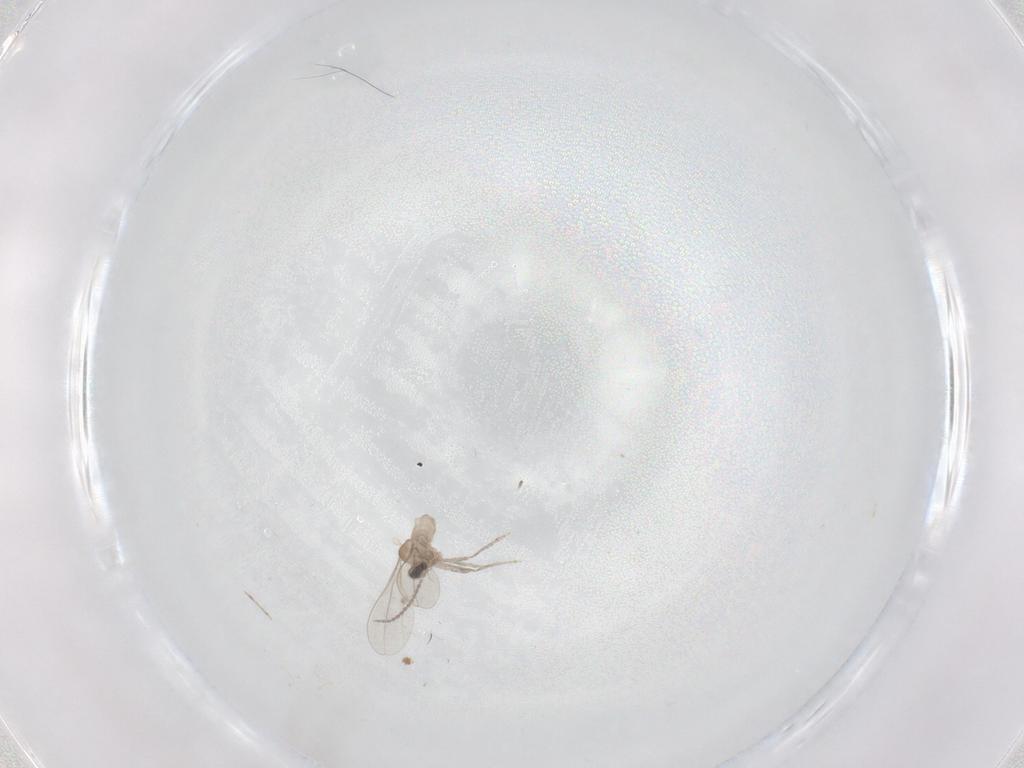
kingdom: Animalia
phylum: Arthropoda
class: Insecta
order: Diptera
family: Cecidomyiidae
